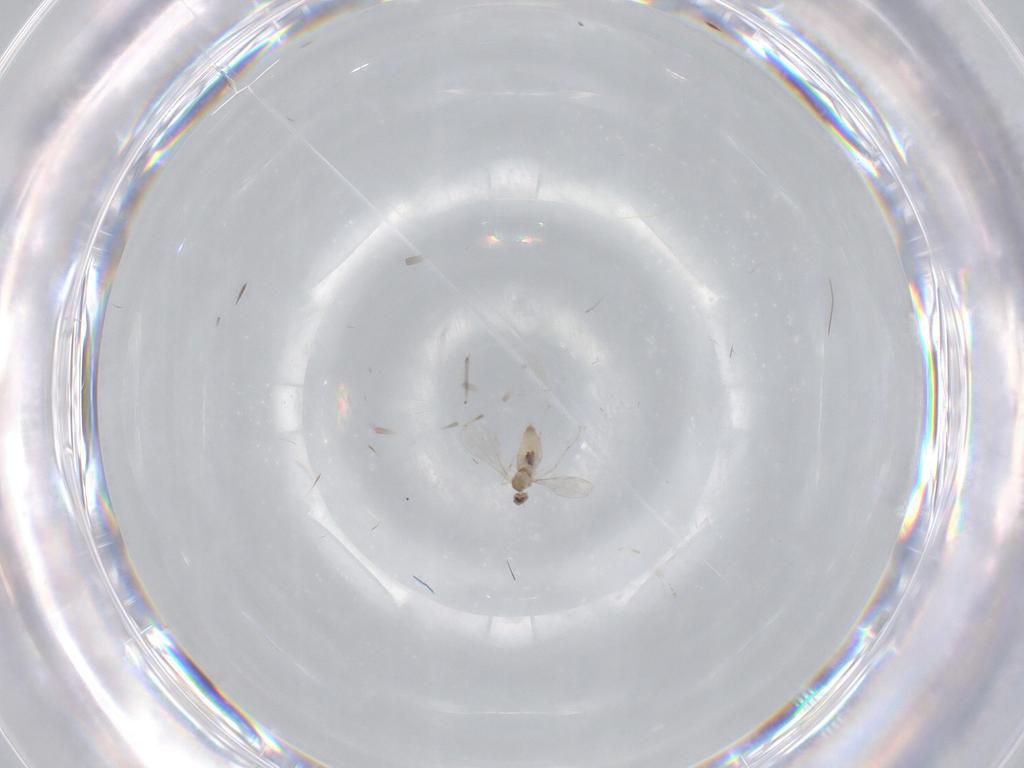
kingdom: Animalia
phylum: Arthropoda
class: Insecta
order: Diptera
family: Cecidomyiidae
